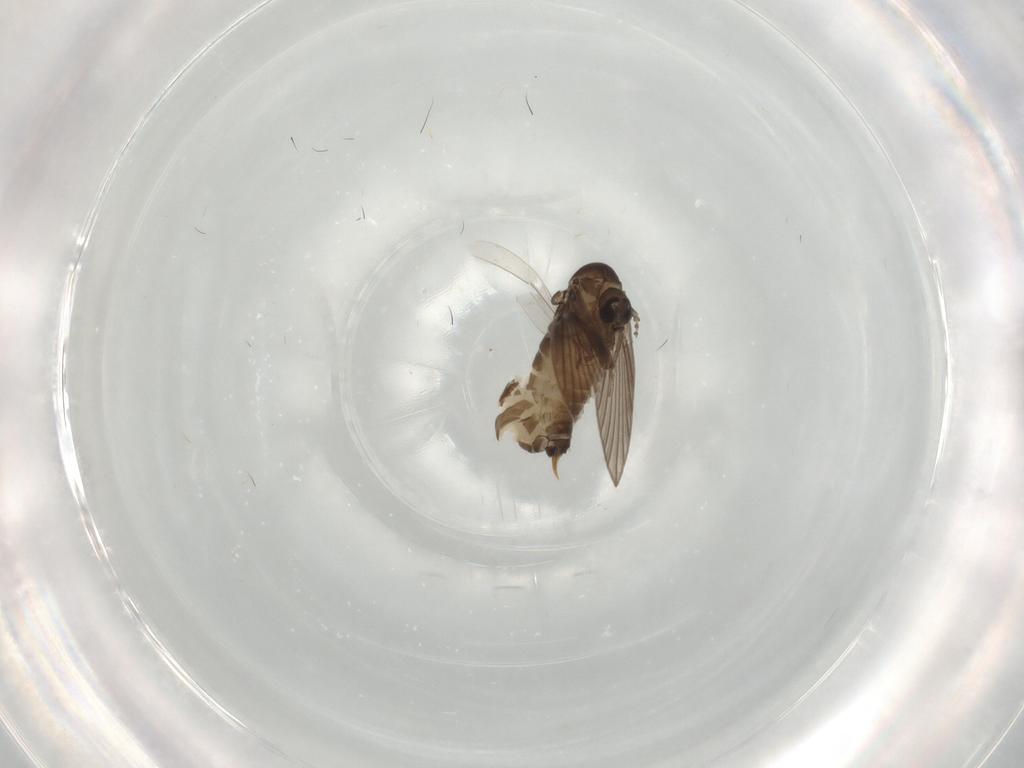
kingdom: Animalia
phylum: Arthropoda
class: Insecta
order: Diptera
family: Psychodidae
